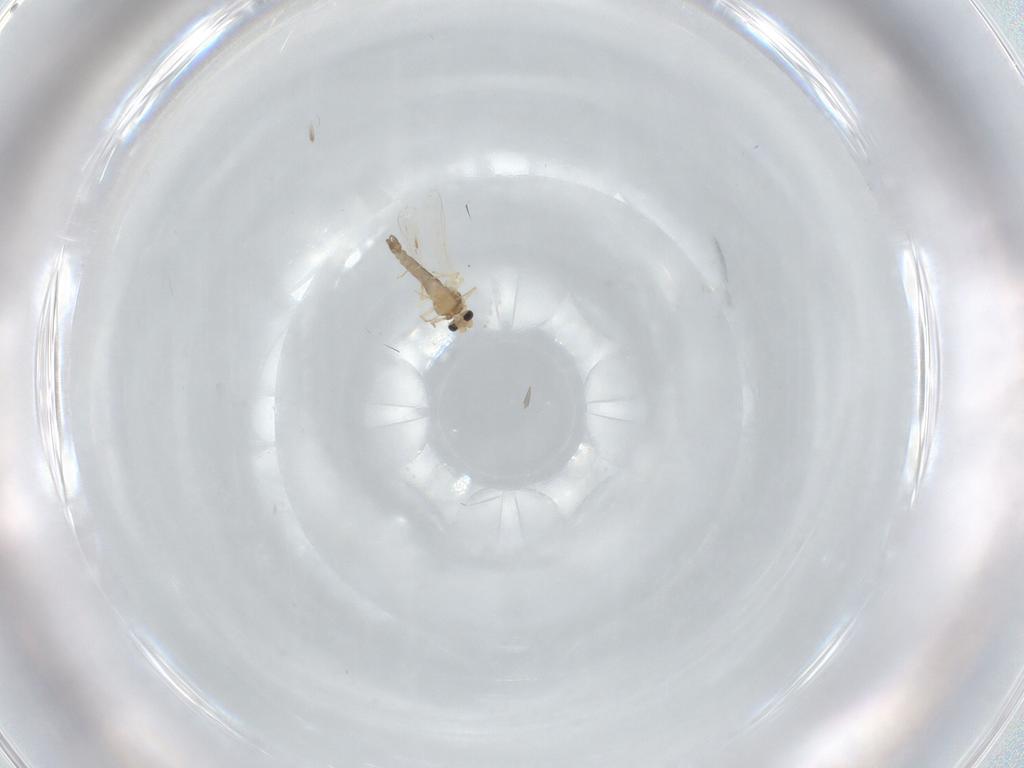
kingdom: Animalia
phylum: Arthropoda
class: Insecta
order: Diptera
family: Chironomidae
